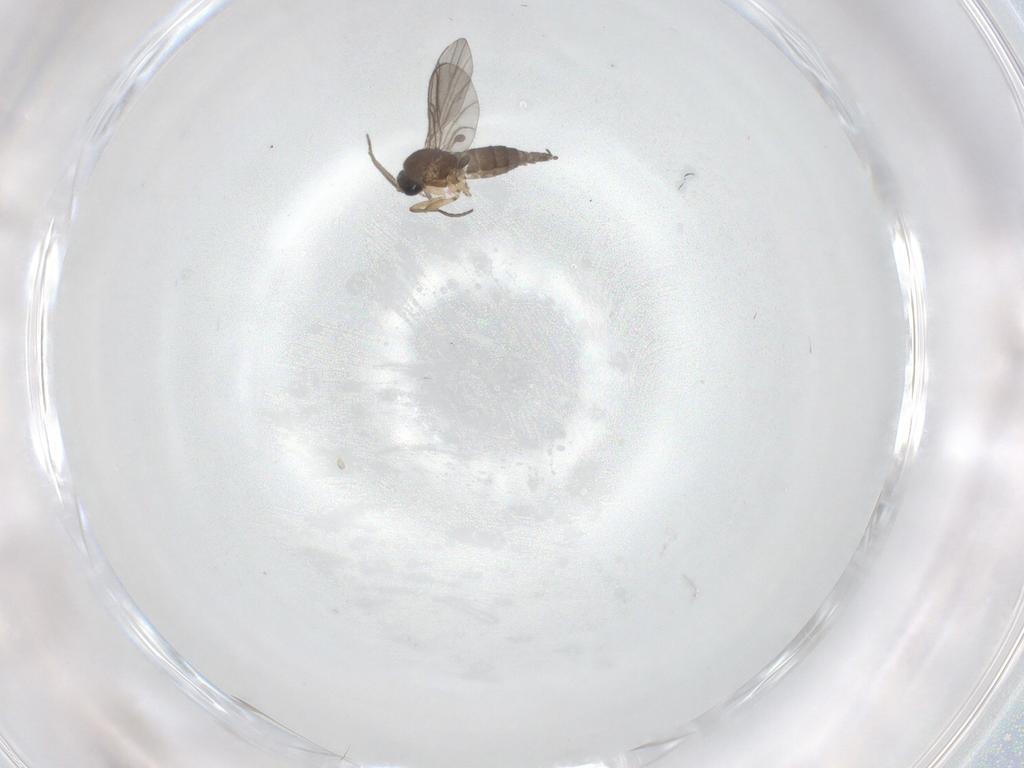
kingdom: Animalia
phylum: Arthropoda
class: Insecta
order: Diptera
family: Sciaridae
